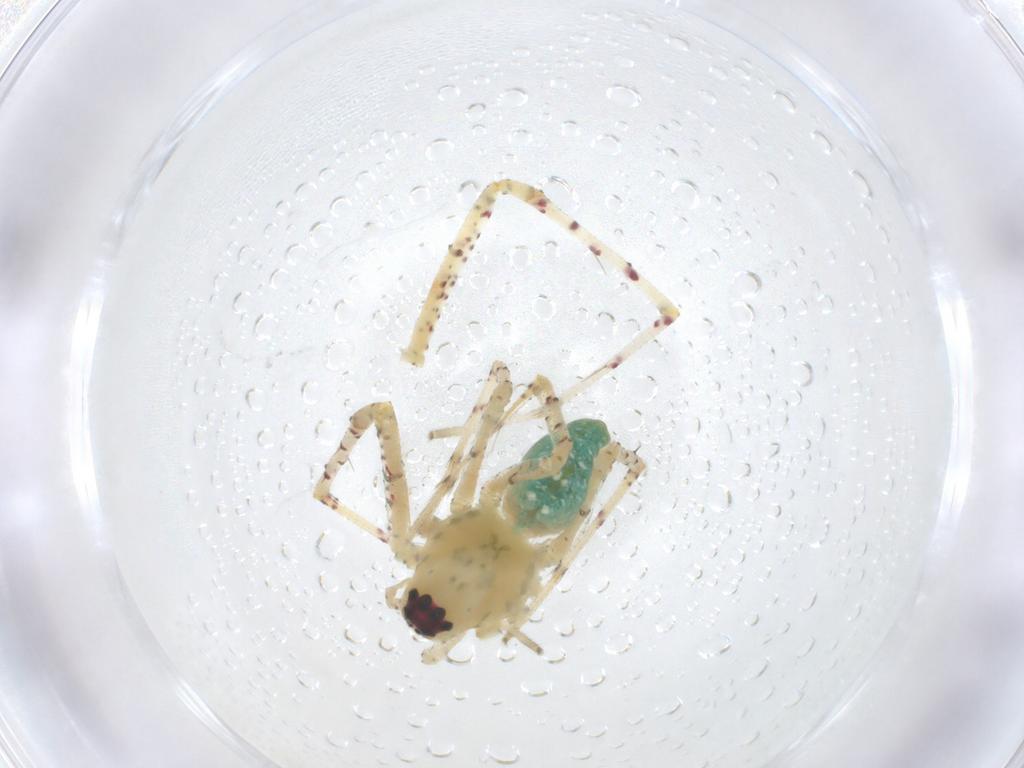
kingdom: Animalia
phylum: Arthropoda
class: Arachnida
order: Araneae
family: Oxyopidae
